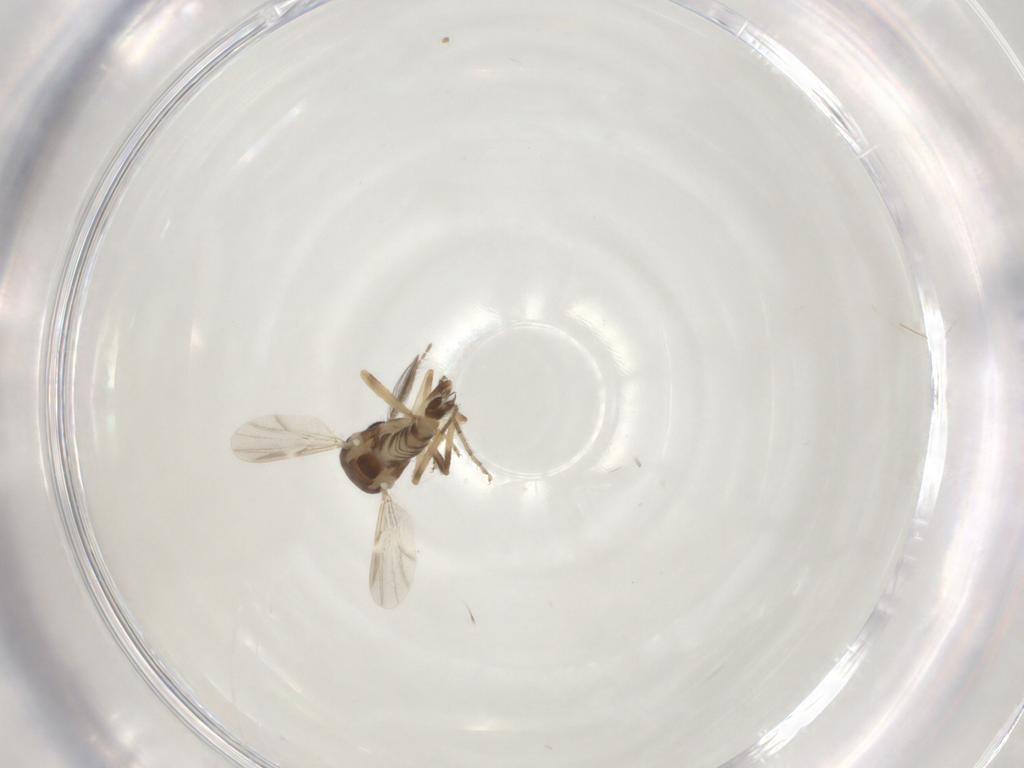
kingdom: Animalia
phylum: Arthropoda
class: Insecta
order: Diptera
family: Ceratopogonidae
